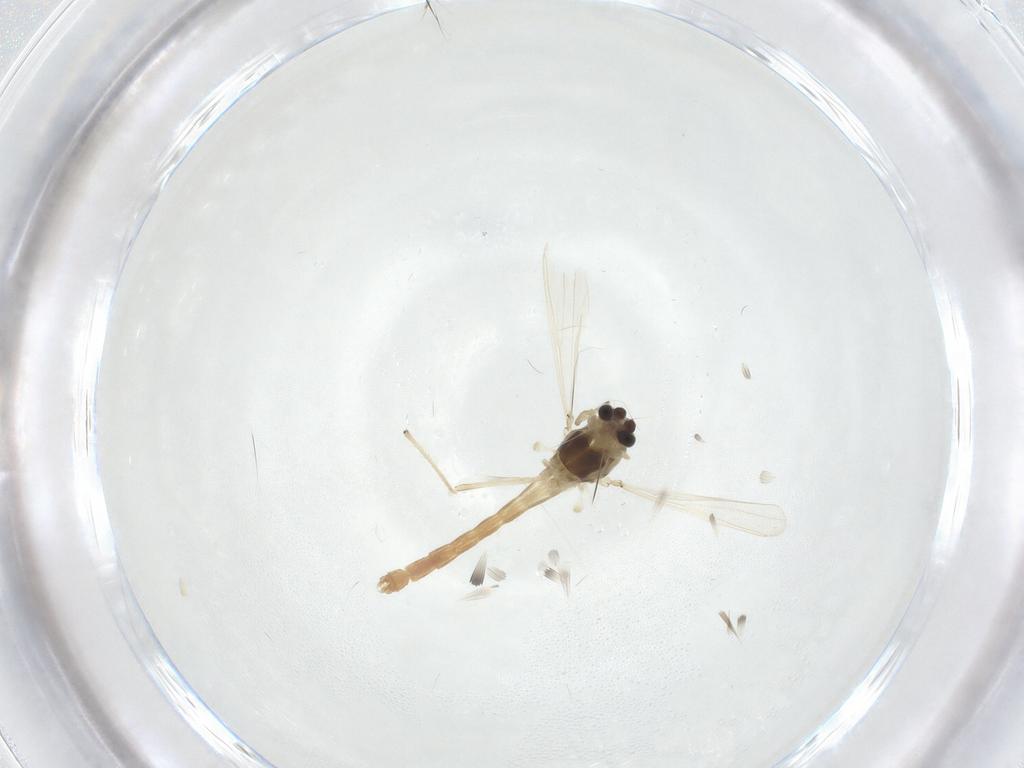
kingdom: Animalia
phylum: Arthropoda
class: Insecta
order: Diptera
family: Chironomidae
